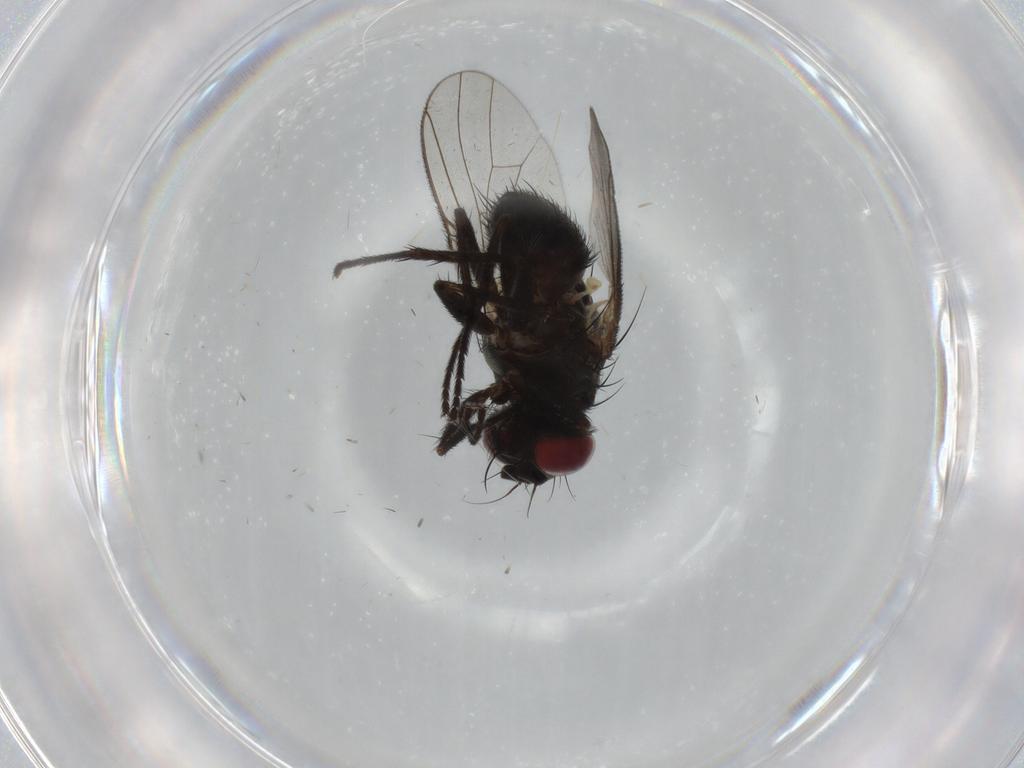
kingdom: Animalia
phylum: Arthropoda
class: Insecta
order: Diptera
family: Muscidae
